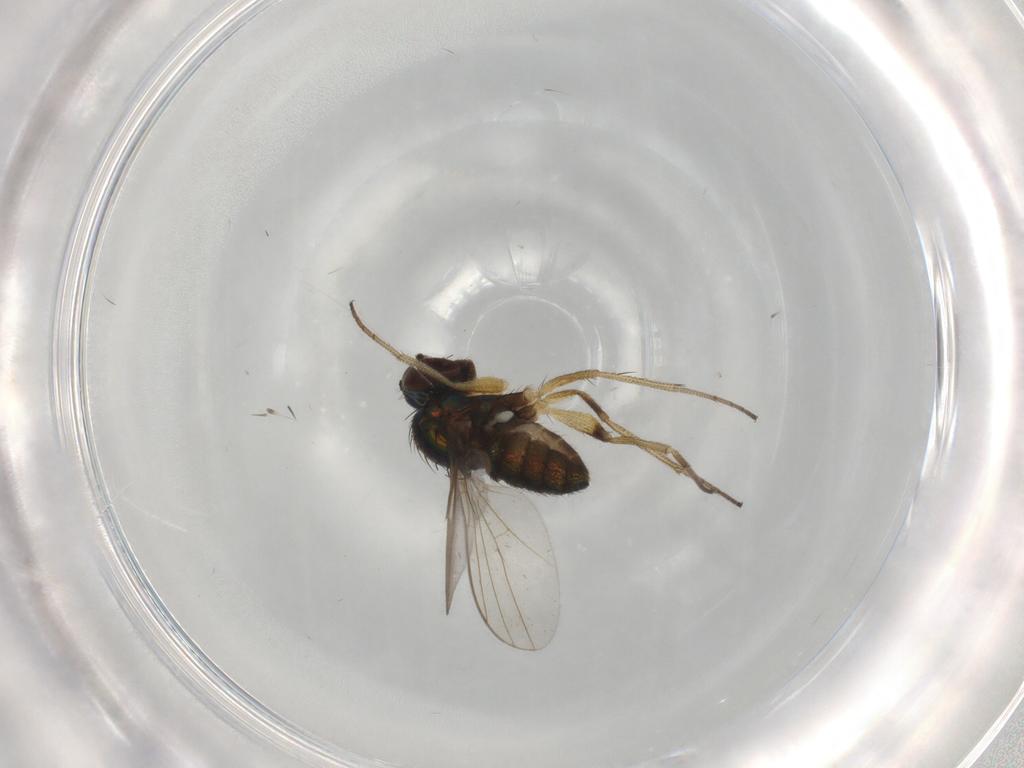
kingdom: Animalia
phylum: Arthropoda
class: Insecta
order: Diptera
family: Dolichopodidae
